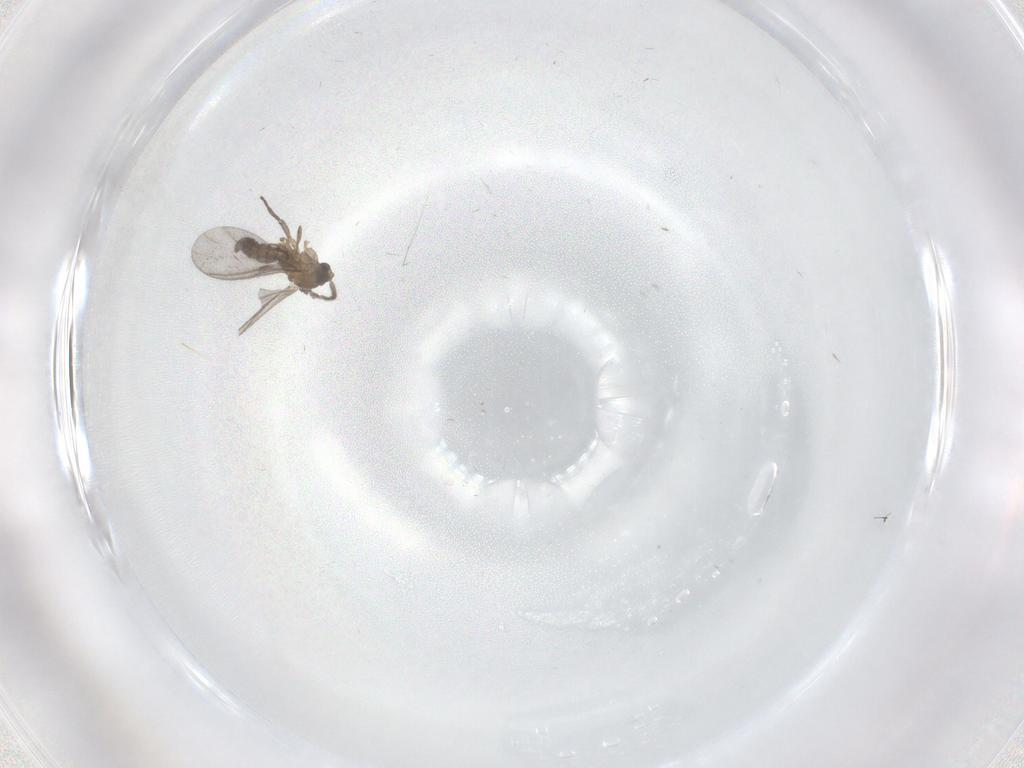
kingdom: Animalia
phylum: Arthropoda
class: Insecta
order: Diptera
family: Sciaridae
